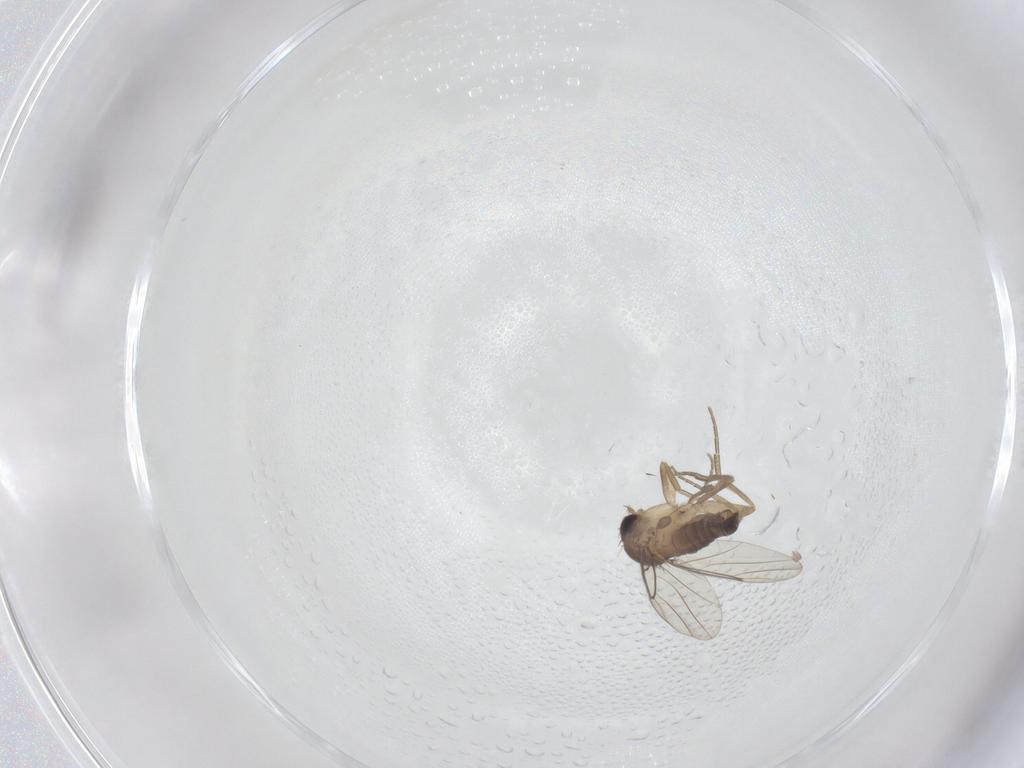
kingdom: Animalia
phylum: Arthropoda
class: Insecta
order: Diptera
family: Phoridae
